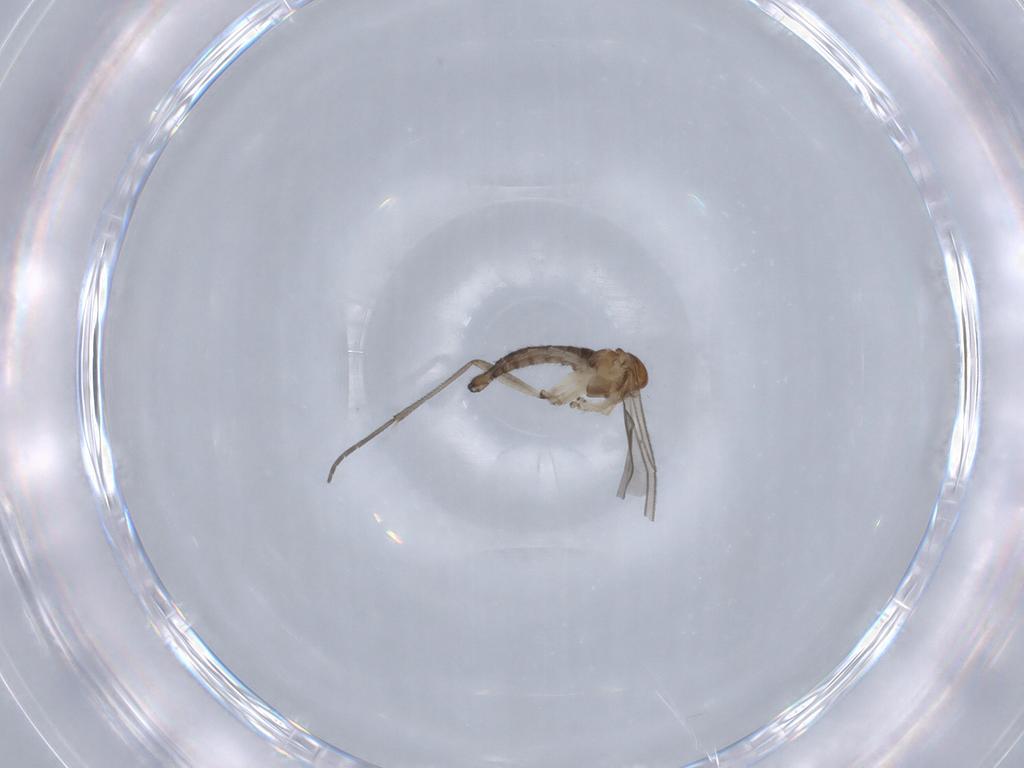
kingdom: Animalia
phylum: Arthropoda
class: Insecta
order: Diptera
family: Sciaridae
